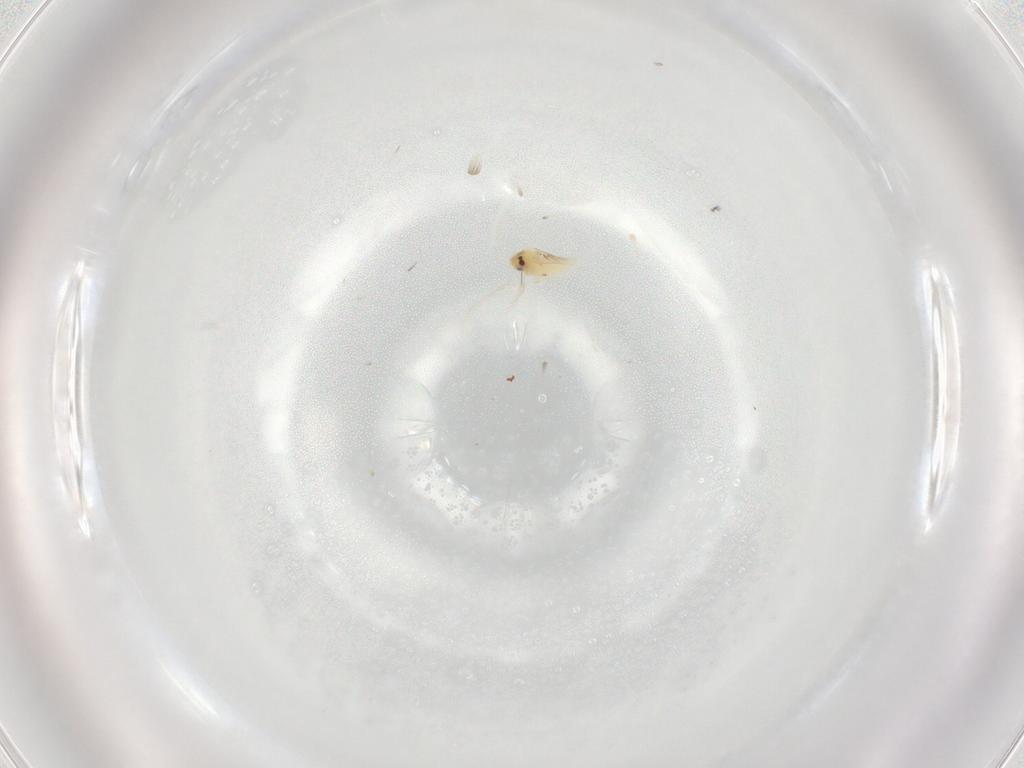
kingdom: Animalia
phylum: Arthropoda
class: Insecta
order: Hemiptera
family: Aleyrodidae
